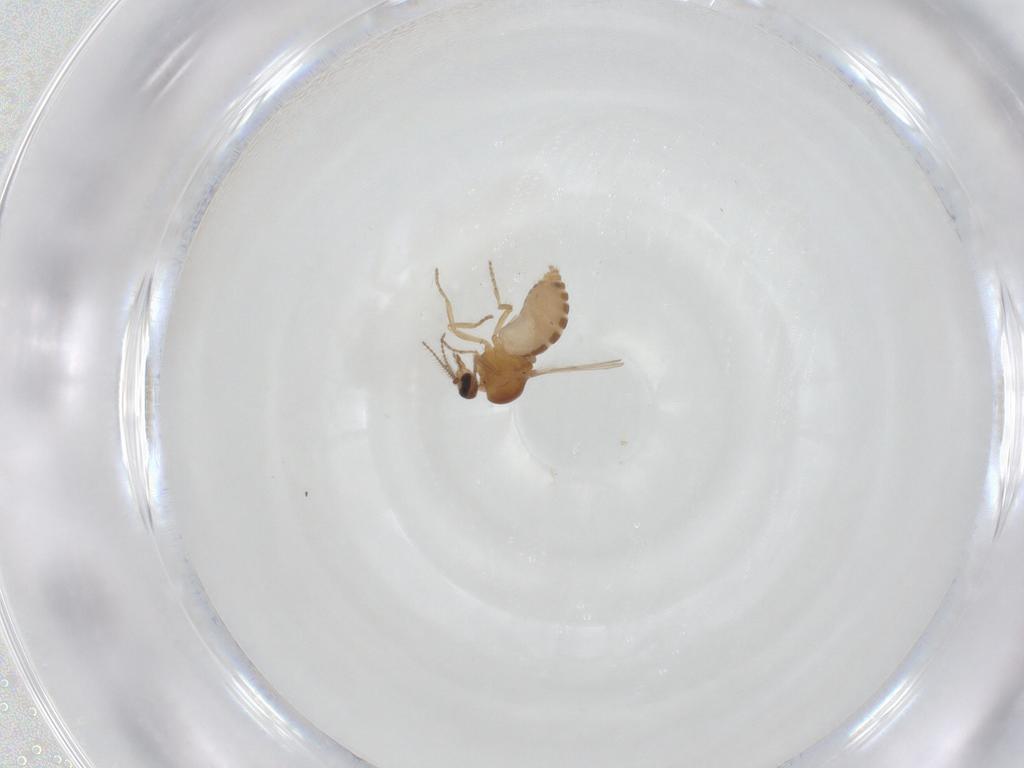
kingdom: Animalia
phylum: Arthropoda
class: Insecta
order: Diptera
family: Ceratopogonidae
